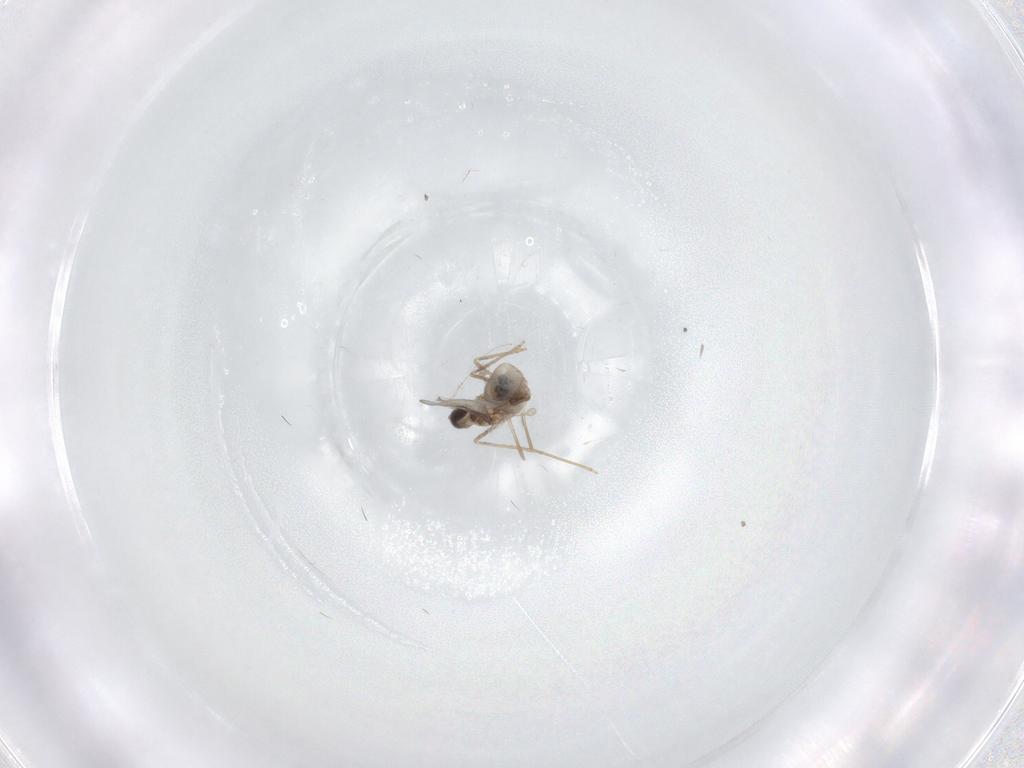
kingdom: Animalia
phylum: Arthropoda
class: Insecta
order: Diptera
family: Cecidomyiidae
